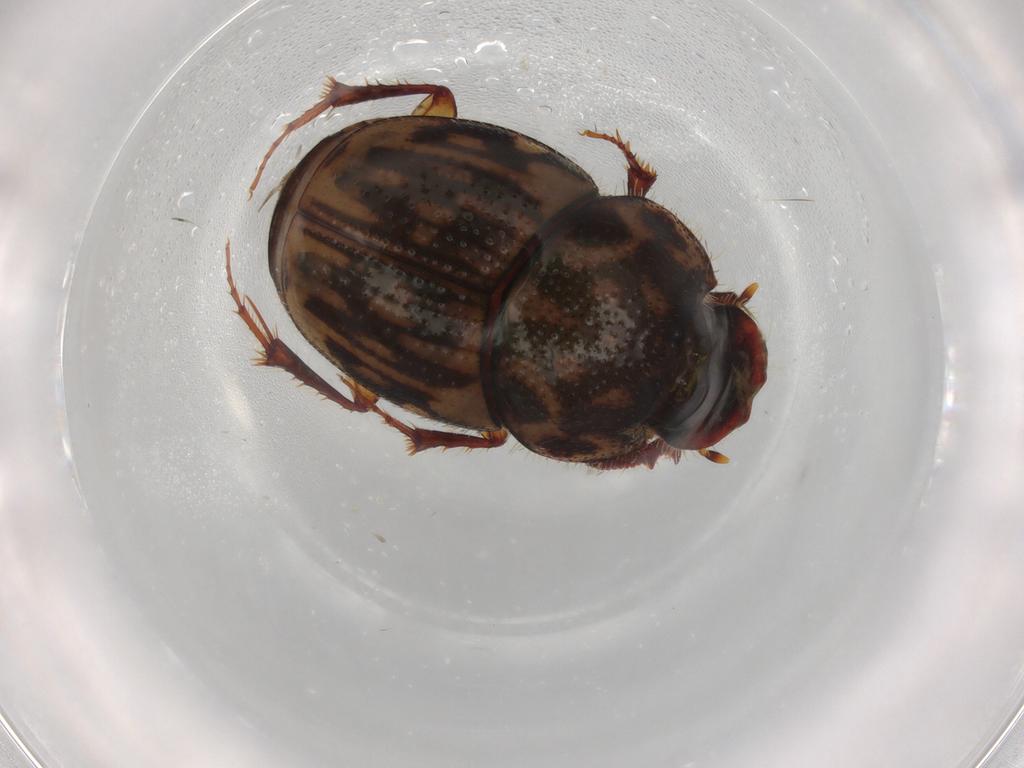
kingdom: Animalia
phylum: Arthropoda
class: Insecta
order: Coleoptera
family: Scarabaeidae
